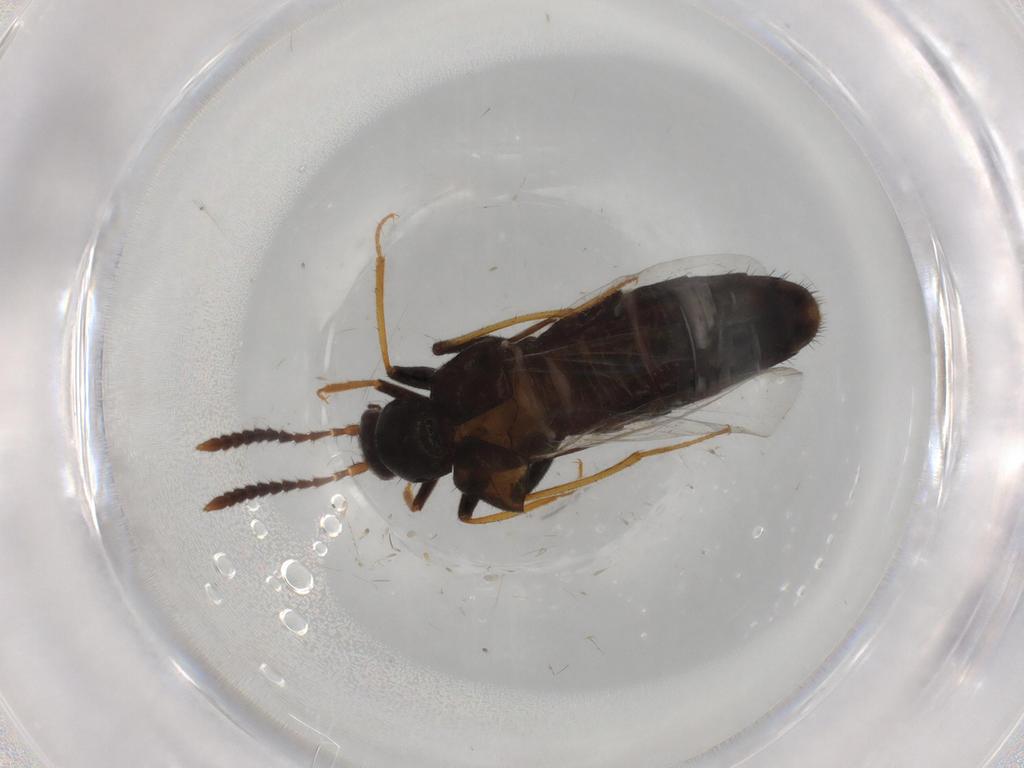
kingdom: Animalia
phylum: Arthropoda
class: Insecta
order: Coleoptera
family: Staphylinidae
